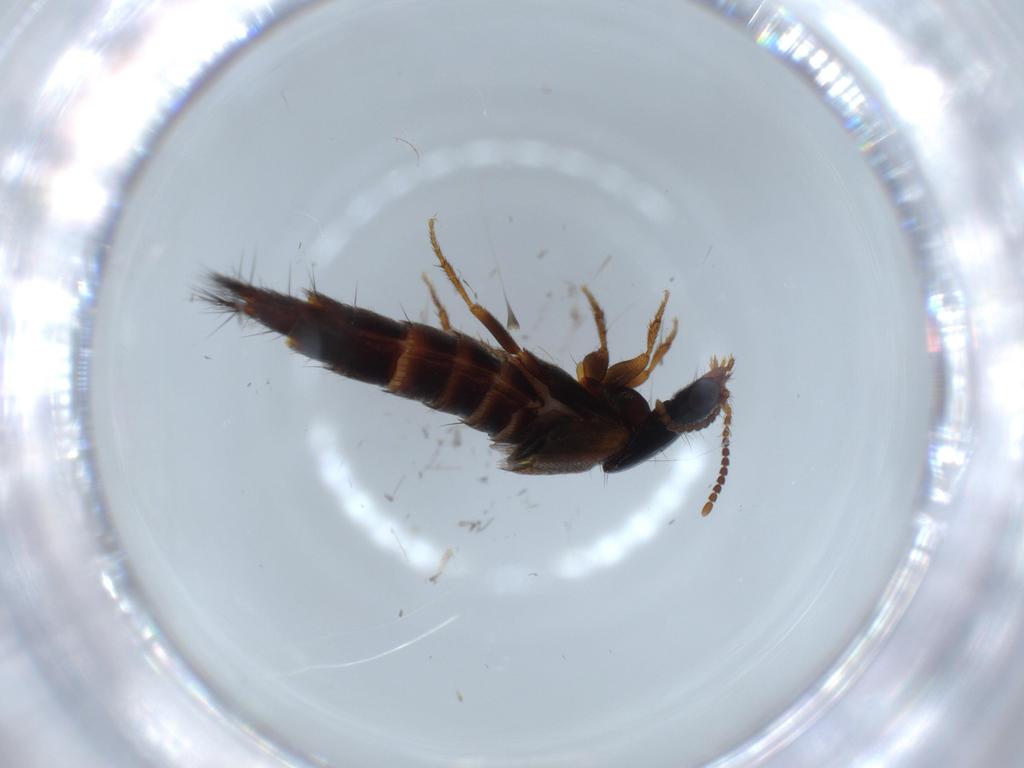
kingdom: Animalia
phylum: Arthropoda
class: Insecta
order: Coleoptera
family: Staphylinidae
